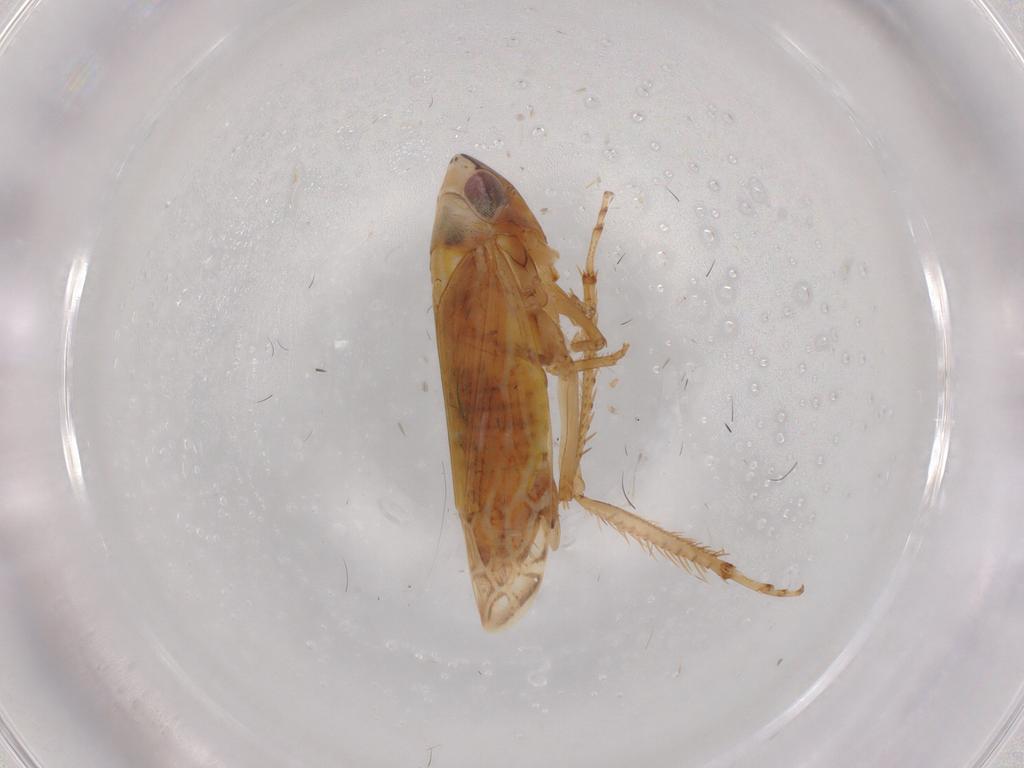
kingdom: Animalia
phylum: Arthropoda
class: Insecta
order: Hemiptera
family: Cicadellidae
